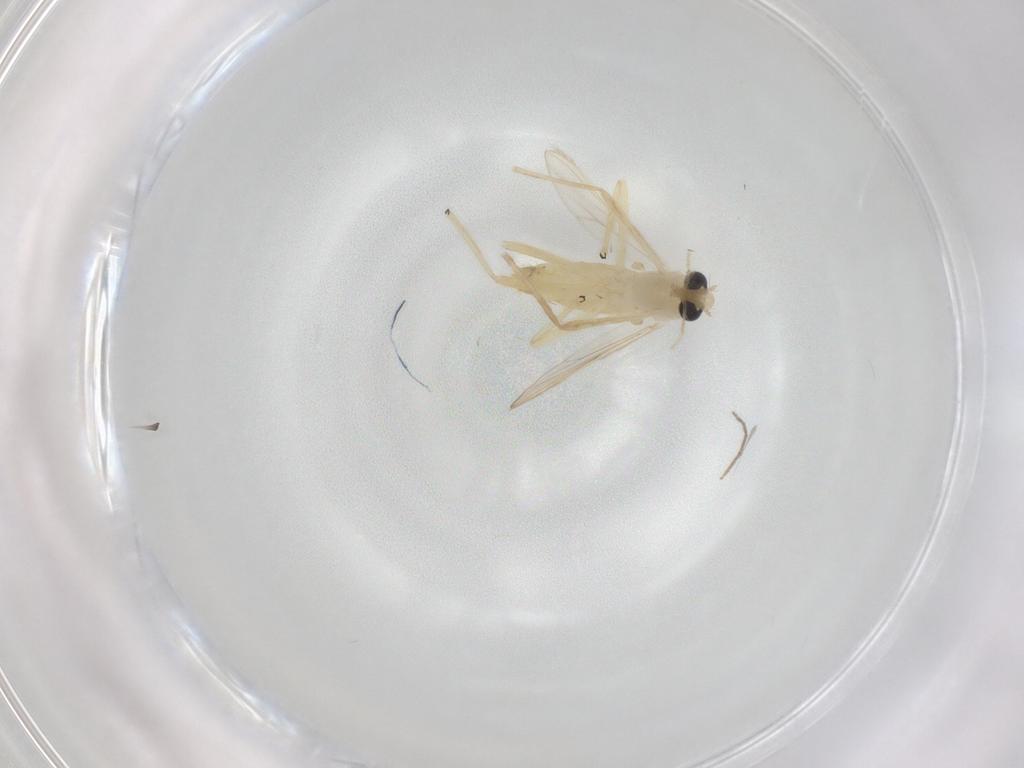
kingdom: Animalia
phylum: Arthropoda
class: Insecta
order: Diptera
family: Chironomidae
